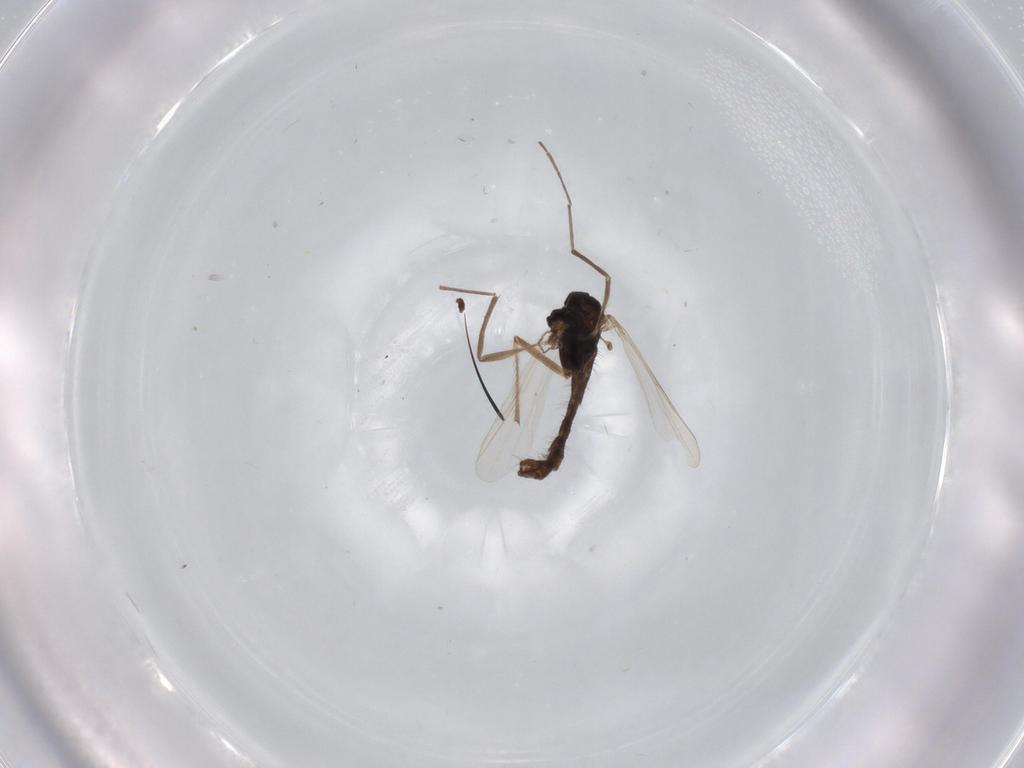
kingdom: Animalia
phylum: Arthropoda
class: Insecta
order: Diptera
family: Chironomidae
